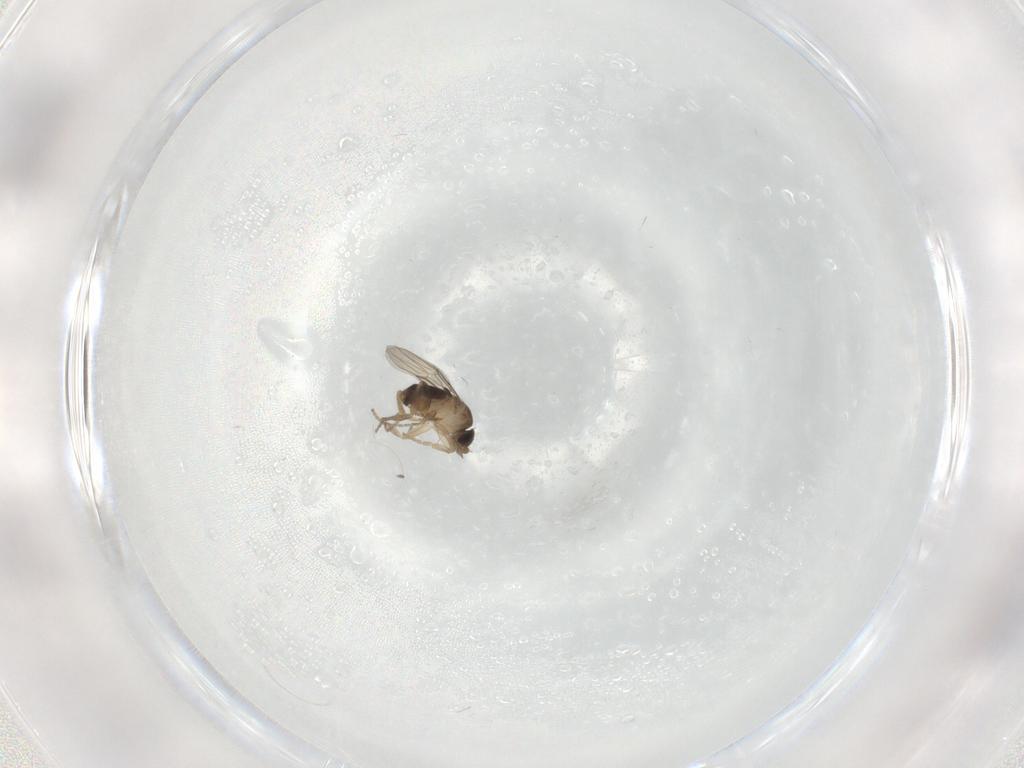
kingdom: Animalia
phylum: Arthropoda
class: Insecta
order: Diptera
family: Phoridae
